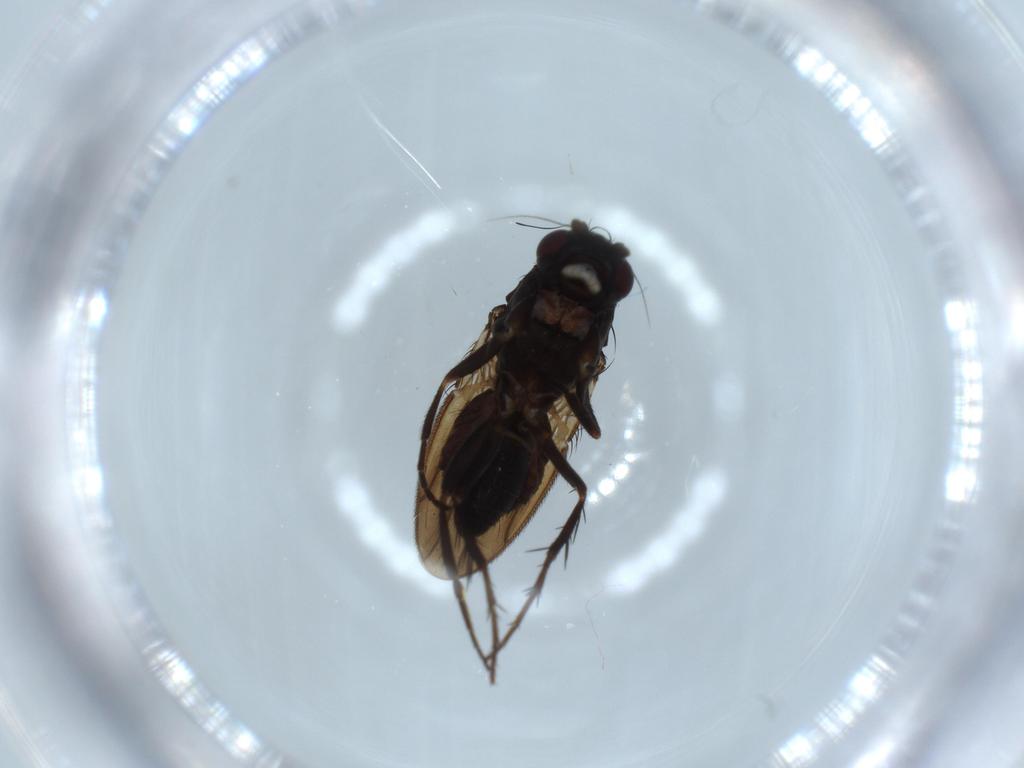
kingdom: Animalia
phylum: Arthropoda
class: Insecta
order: Diptera
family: Sphaeroceridae
